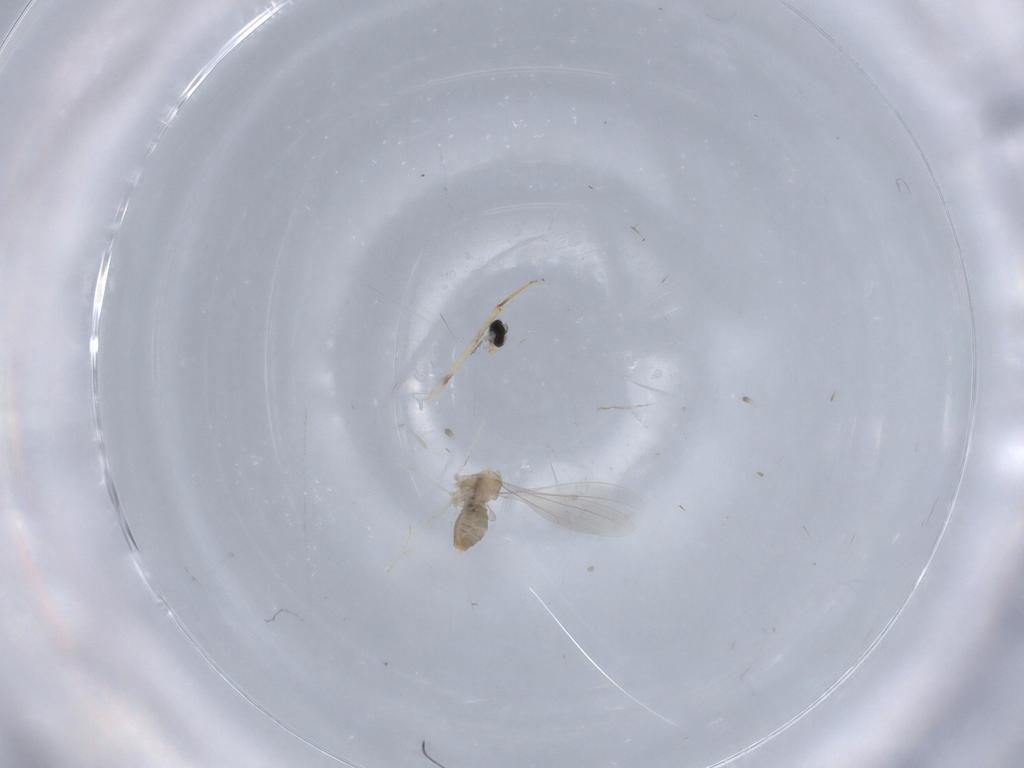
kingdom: Animalia
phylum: Arthropoda
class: Insecta
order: Diptera
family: Cecidomyiidae
